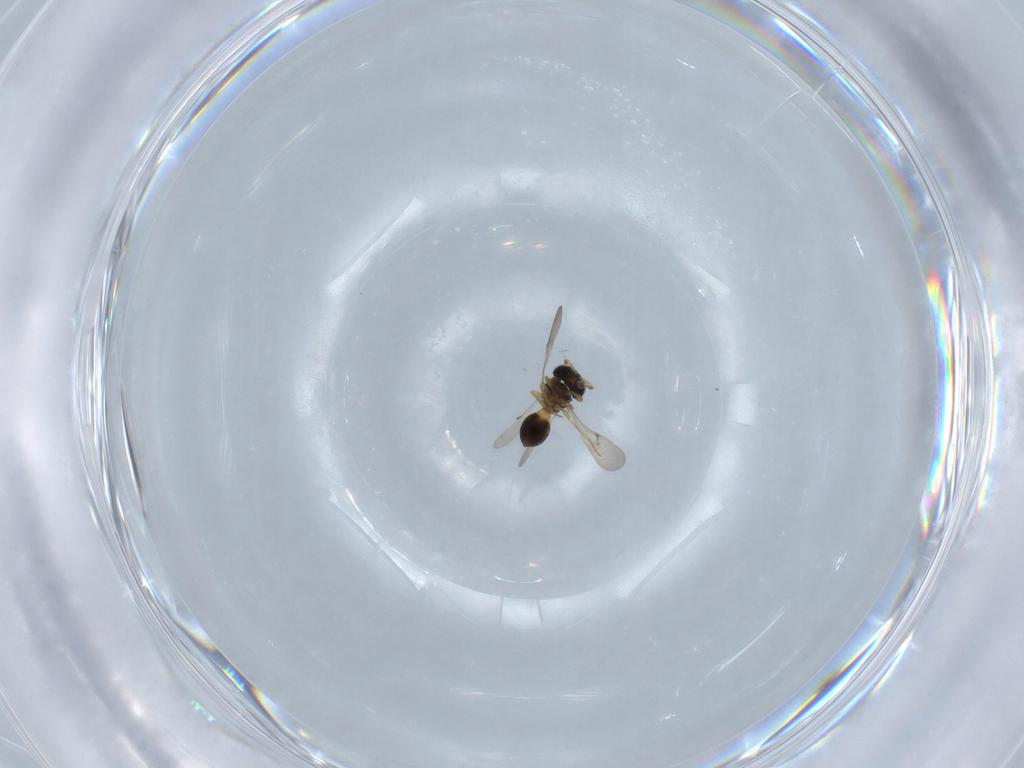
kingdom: Animalia
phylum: Arthropoda
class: Insecta
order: Hymenoptera
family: Scelionidae
